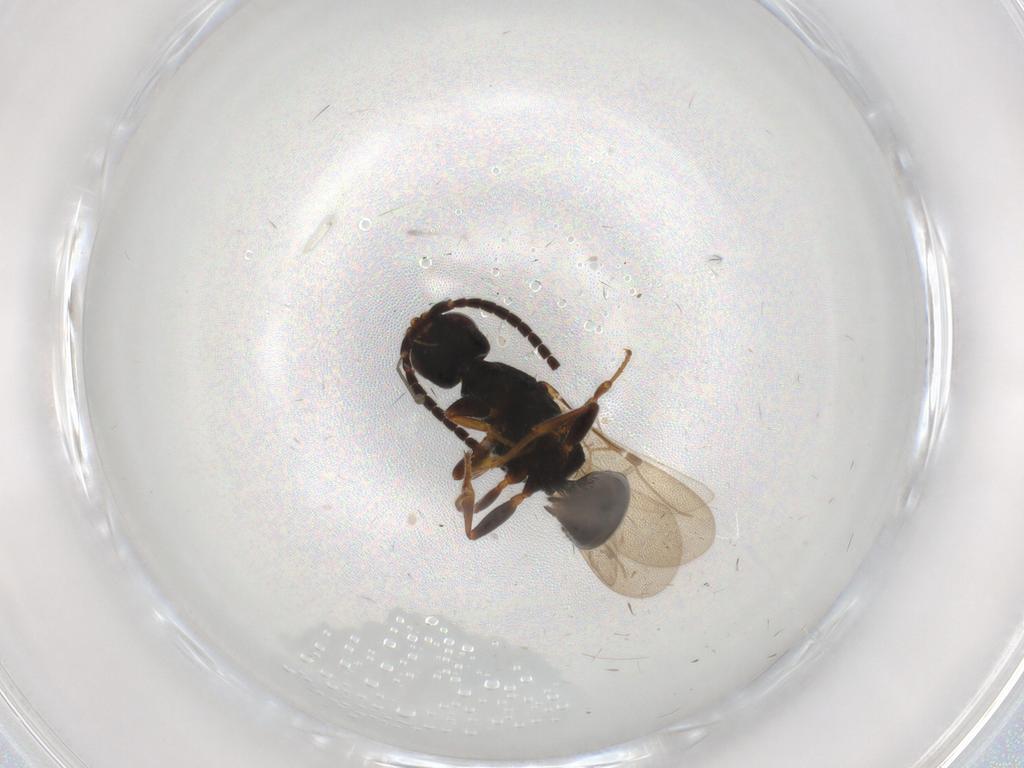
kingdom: Animalia
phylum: Arthropoda
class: Insecta
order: Hymenoptera
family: Bethylidae
